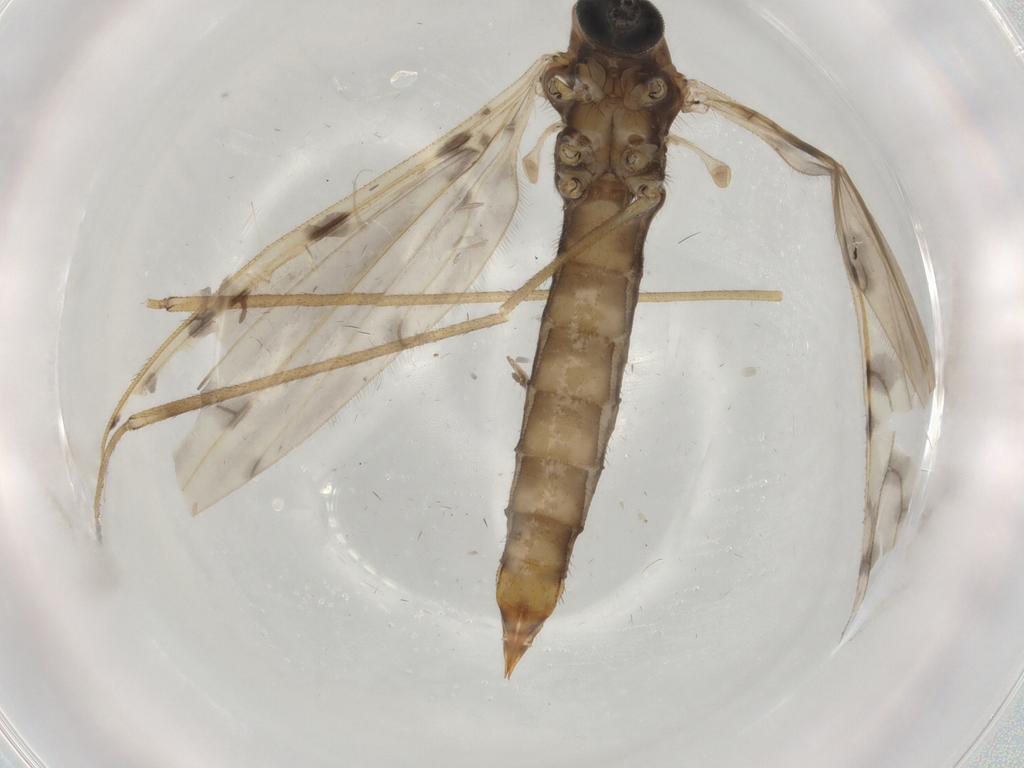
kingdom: Animalia
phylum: Arthropoda
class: Insecta
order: Diptera
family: Limoniidae
